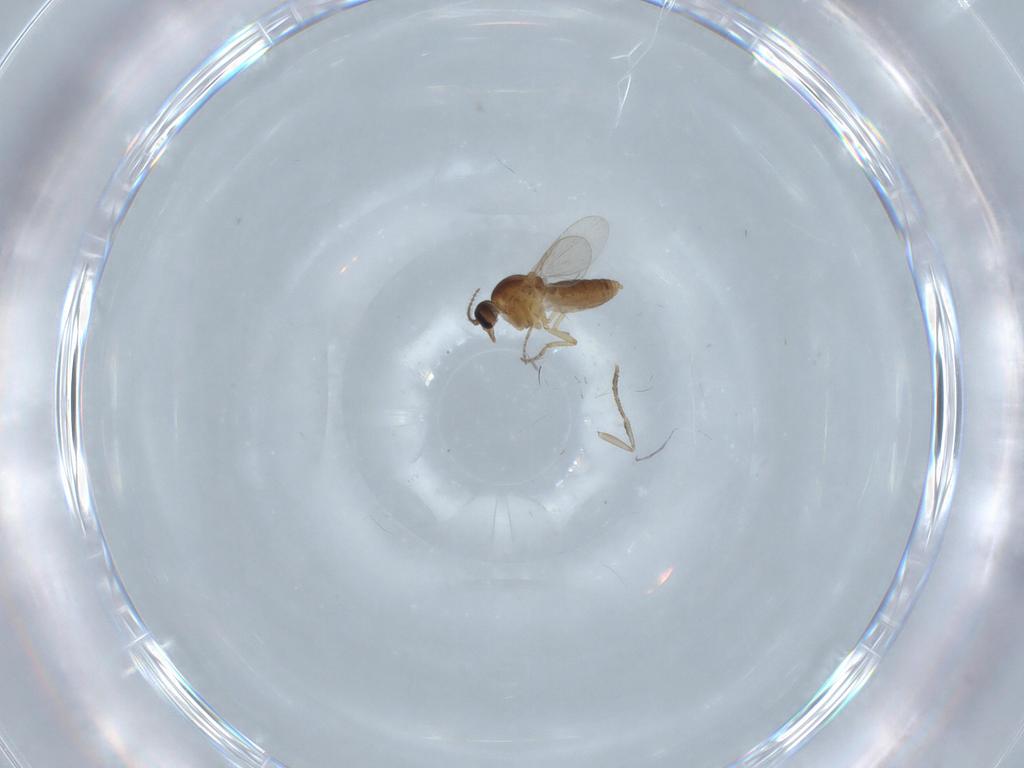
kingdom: Animalia
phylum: Arthropoda
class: Insecta
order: Diptera
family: Ceratopogonidae
